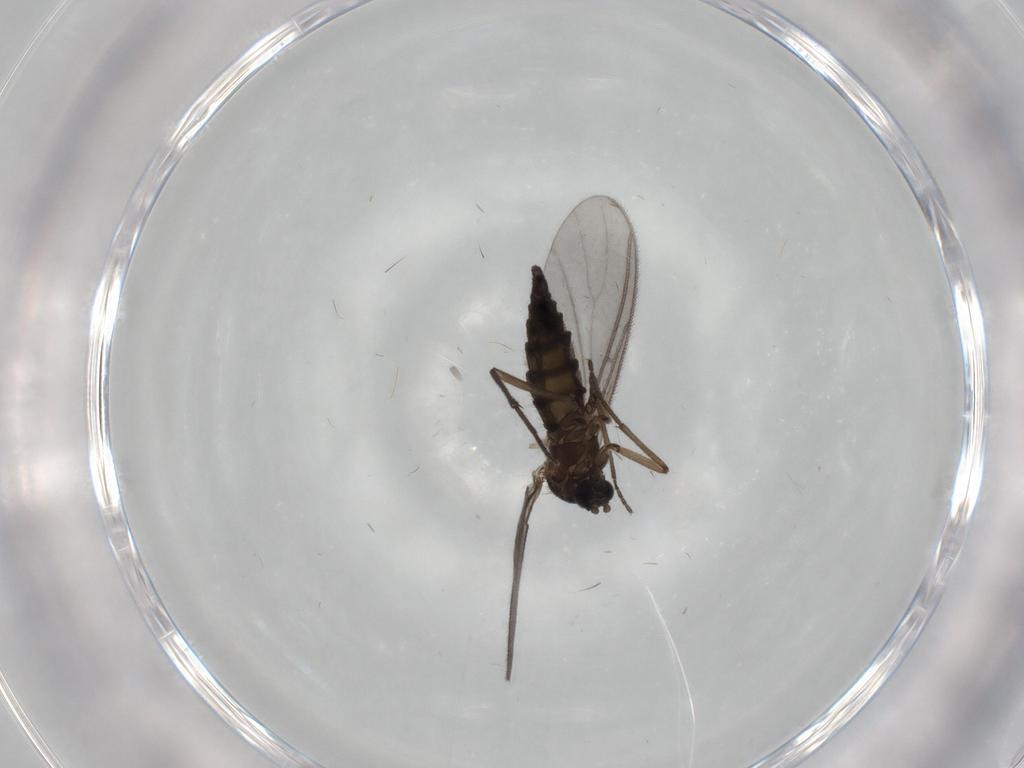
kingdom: Animalia
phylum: Arthropoda
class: Insecta
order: Diptera
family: Sciaridae
